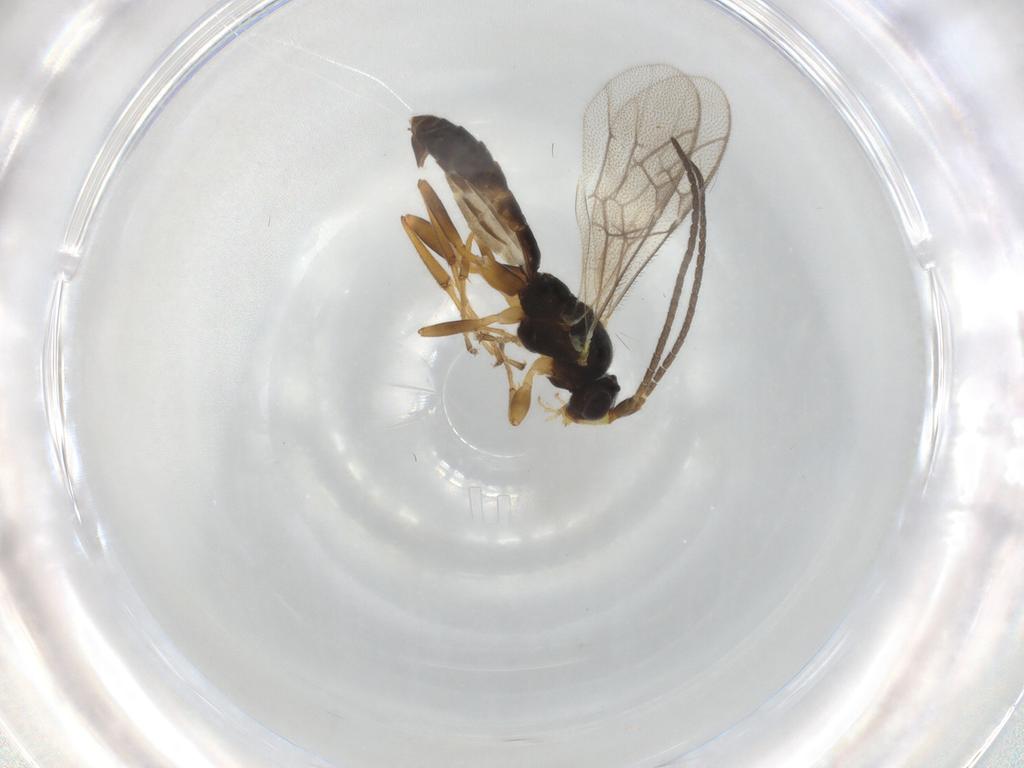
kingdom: Animalia
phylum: Arthropoda
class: Insecta
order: Hymenoptera
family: Ichneumonidae
